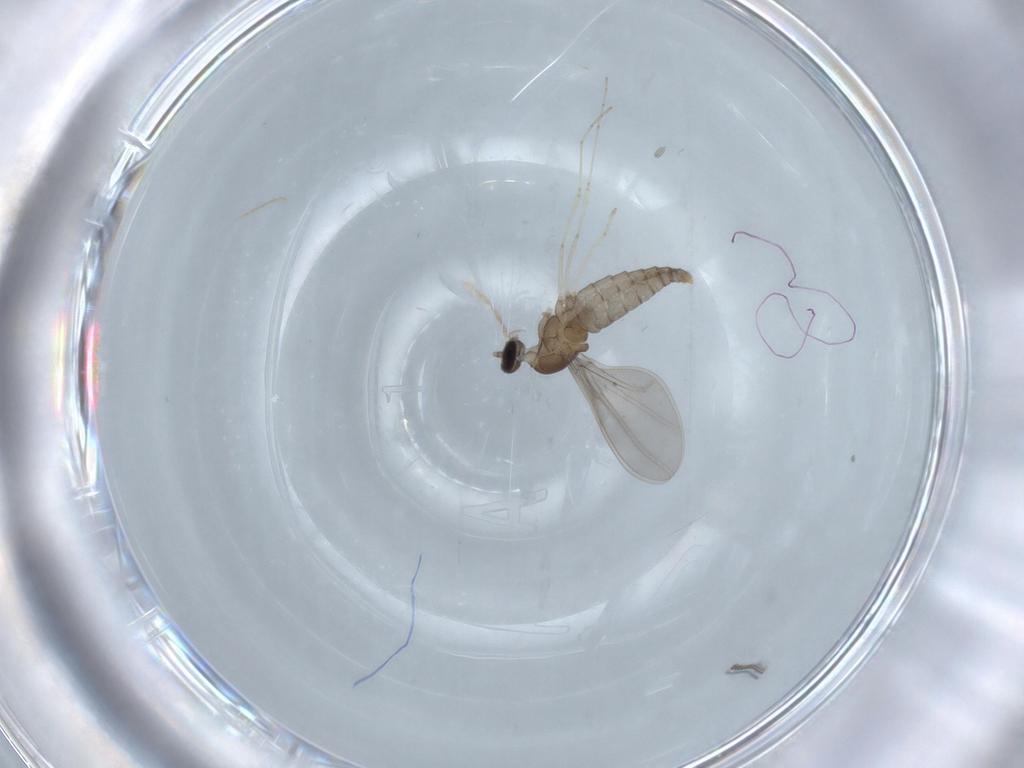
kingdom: Animalia
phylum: Arthropoda
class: Insecta
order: Diptera
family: Cecidomyiidae
